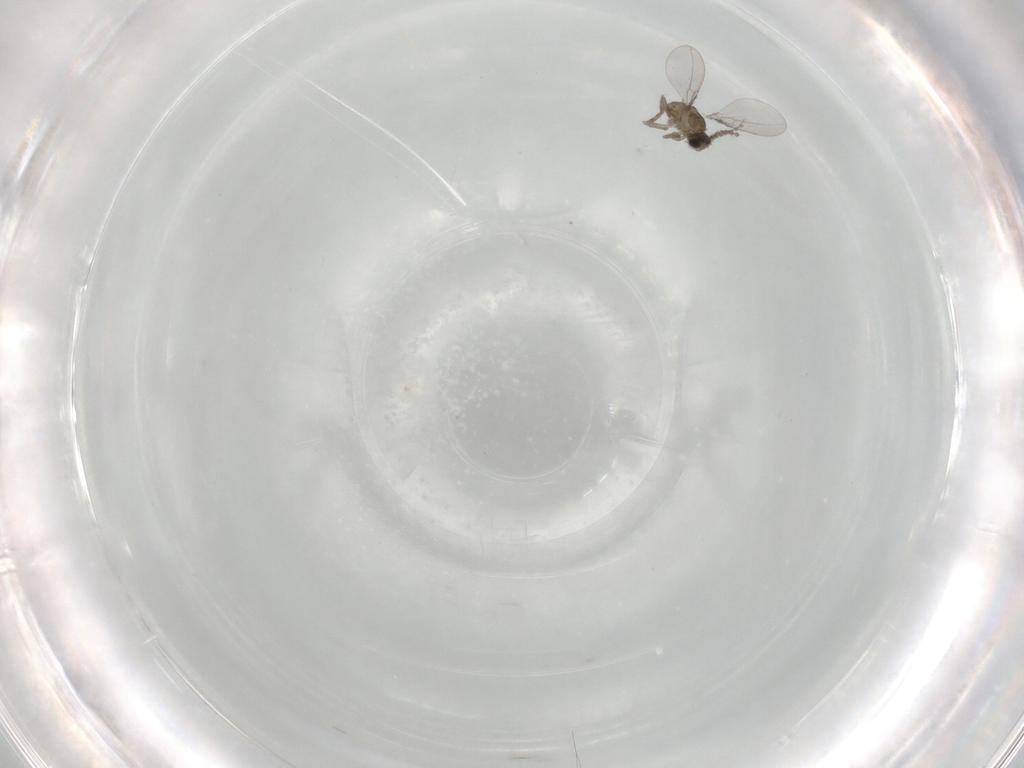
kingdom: Animalia
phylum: Arthropoda
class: Insecta
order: Diptera
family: Cecidomyiidae
